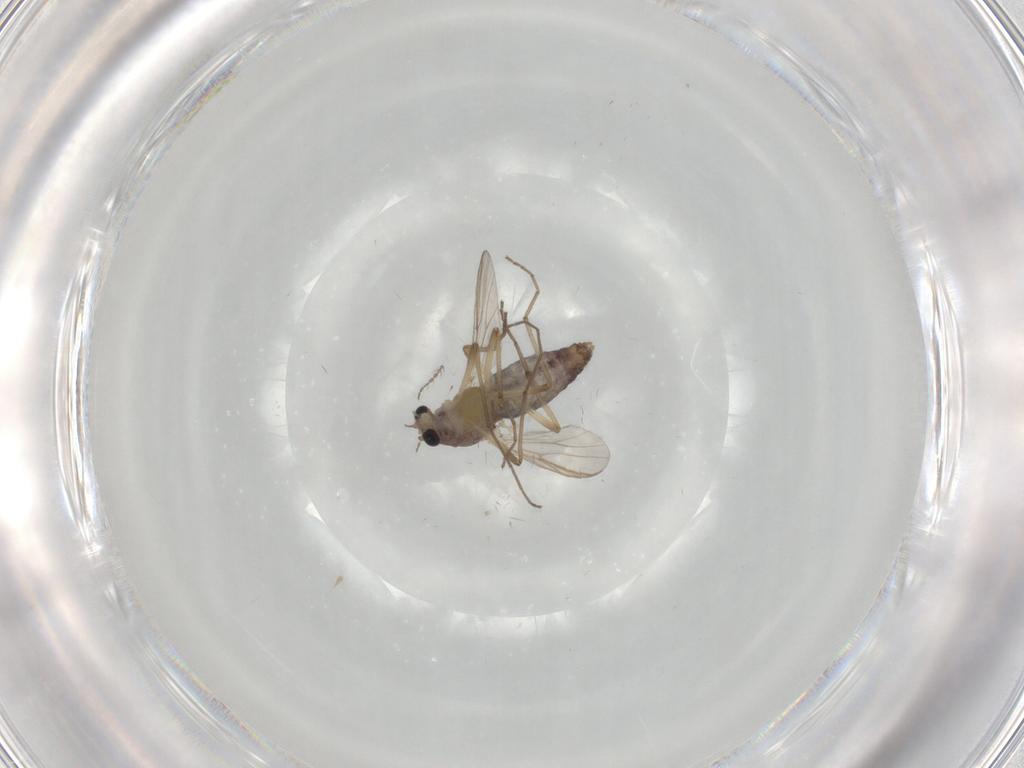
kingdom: Animalia
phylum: Arthropoda
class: Insecta
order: Diptera
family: Chironomidae
